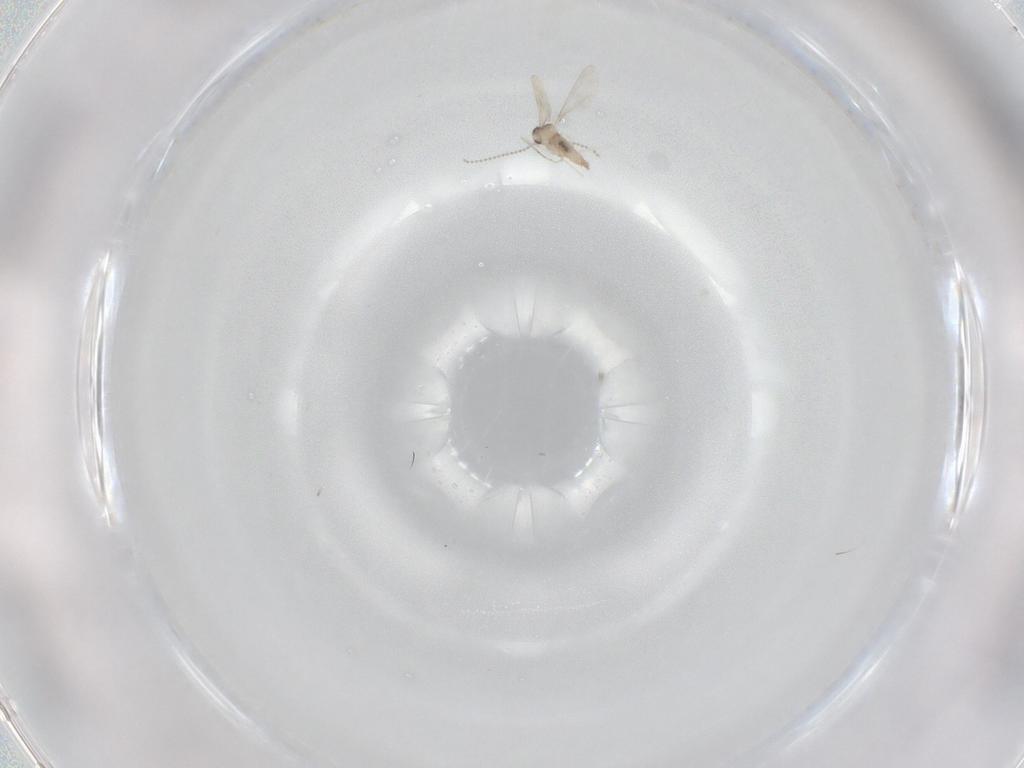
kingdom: Animalia
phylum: Arthropoda
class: Insecta
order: Diptera
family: Cecidomyiidae
